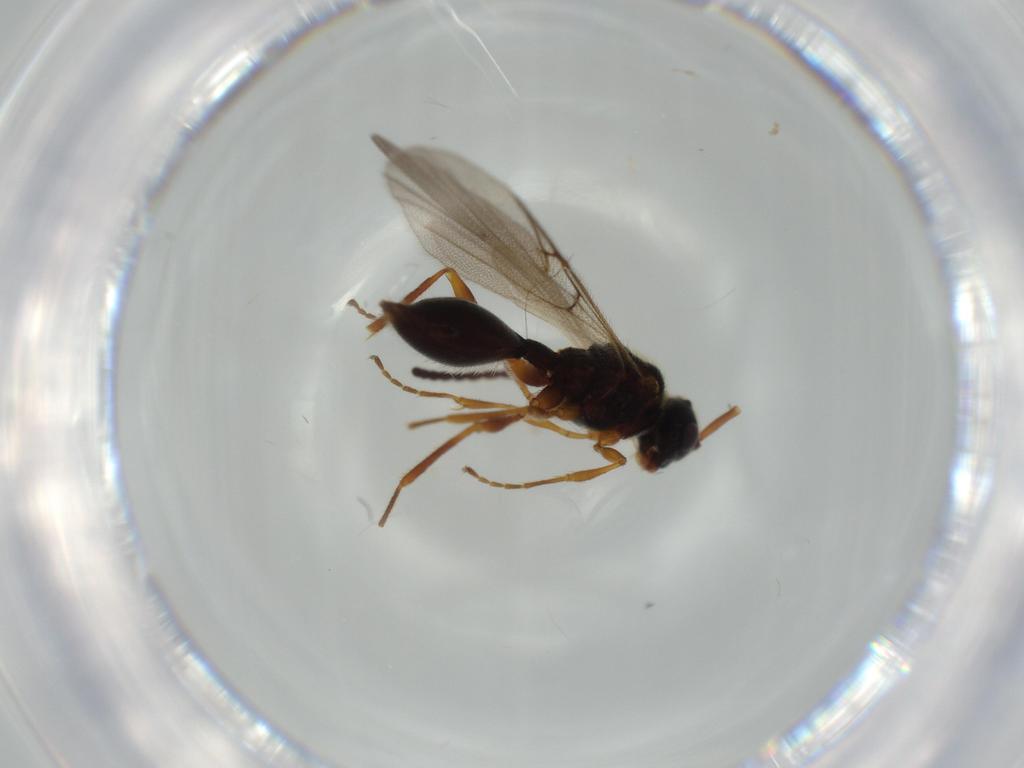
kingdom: Animalia
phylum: Arthropoda
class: Insecta
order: Hymenoptera
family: Diapriidae
